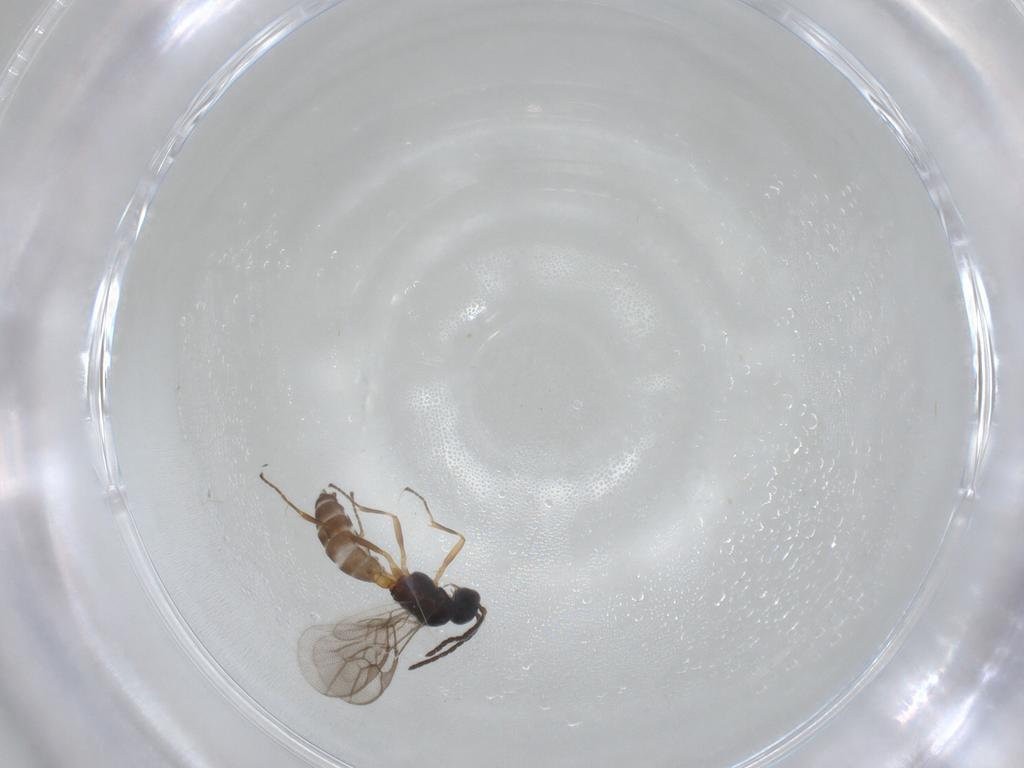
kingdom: Animalia
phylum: Arthropoda
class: Insecta
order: Hymenoptera
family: Braconidae
